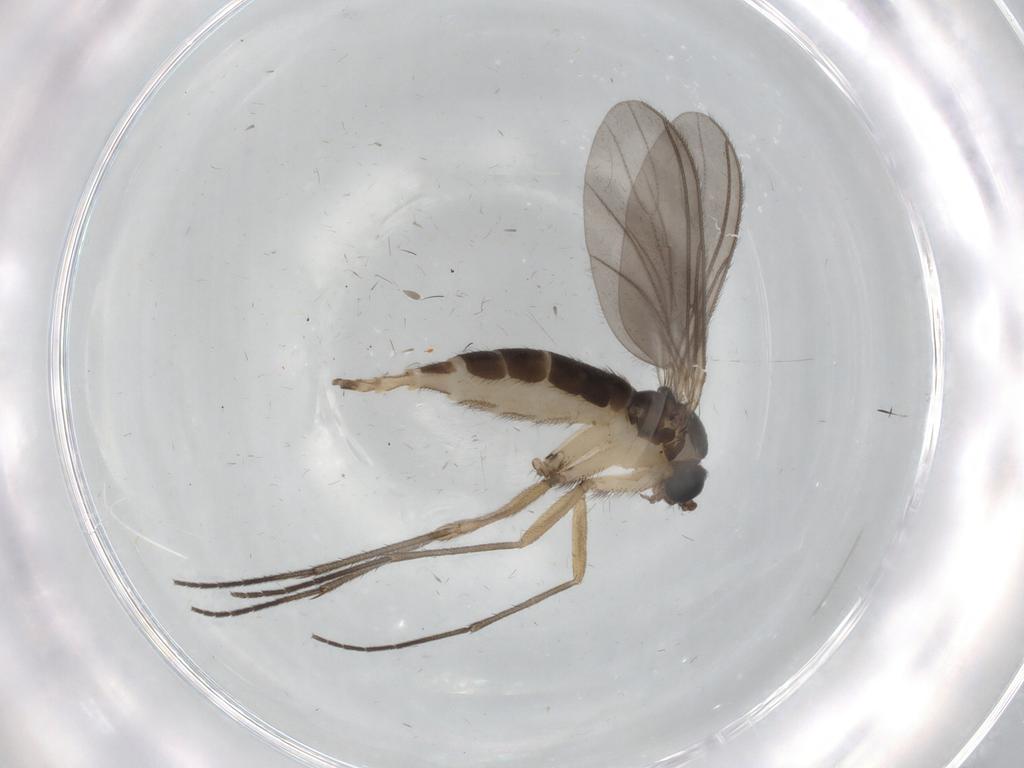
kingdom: Animalia
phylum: Arthropoda
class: Insecta
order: Diptera
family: Sciaridae
